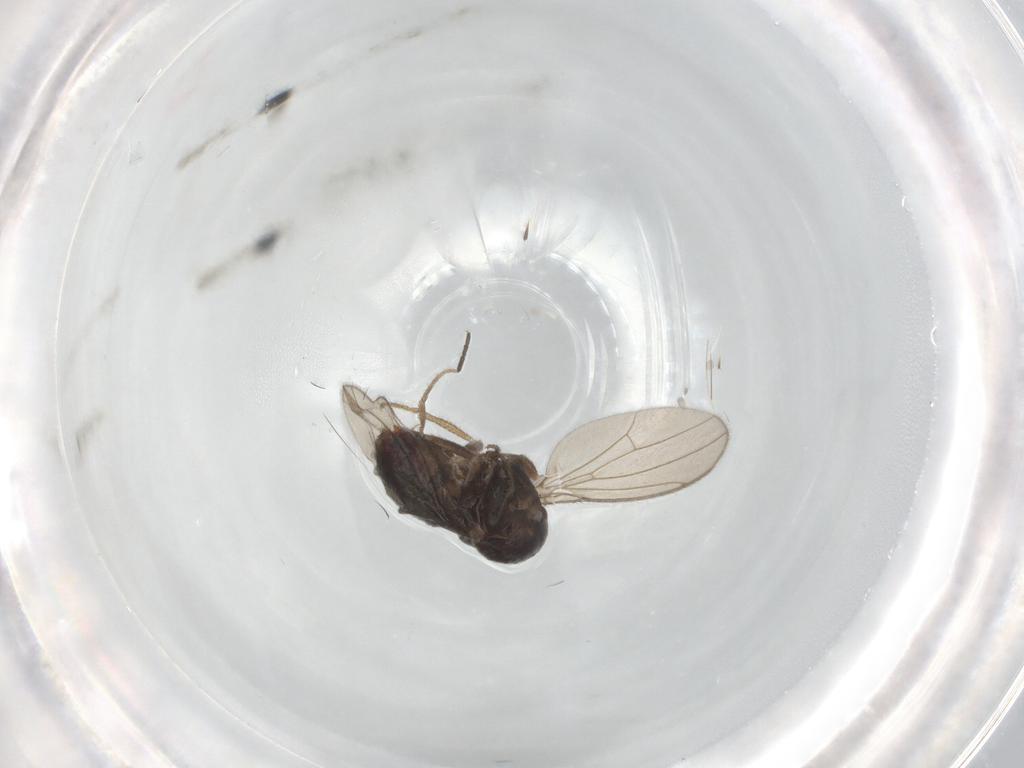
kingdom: Animalia
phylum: Arthropoda
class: Insecta
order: Diptera
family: Drosophilidae
